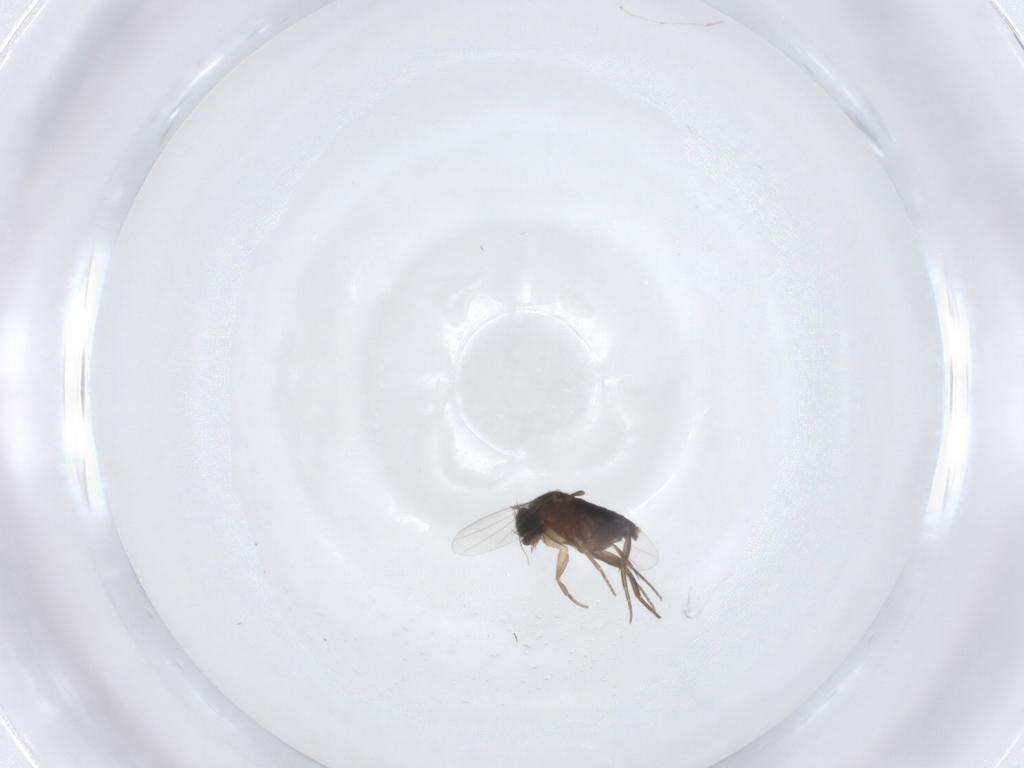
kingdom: Animalia
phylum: Arthropoda
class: Insecta
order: Diptera
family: Phoridae
